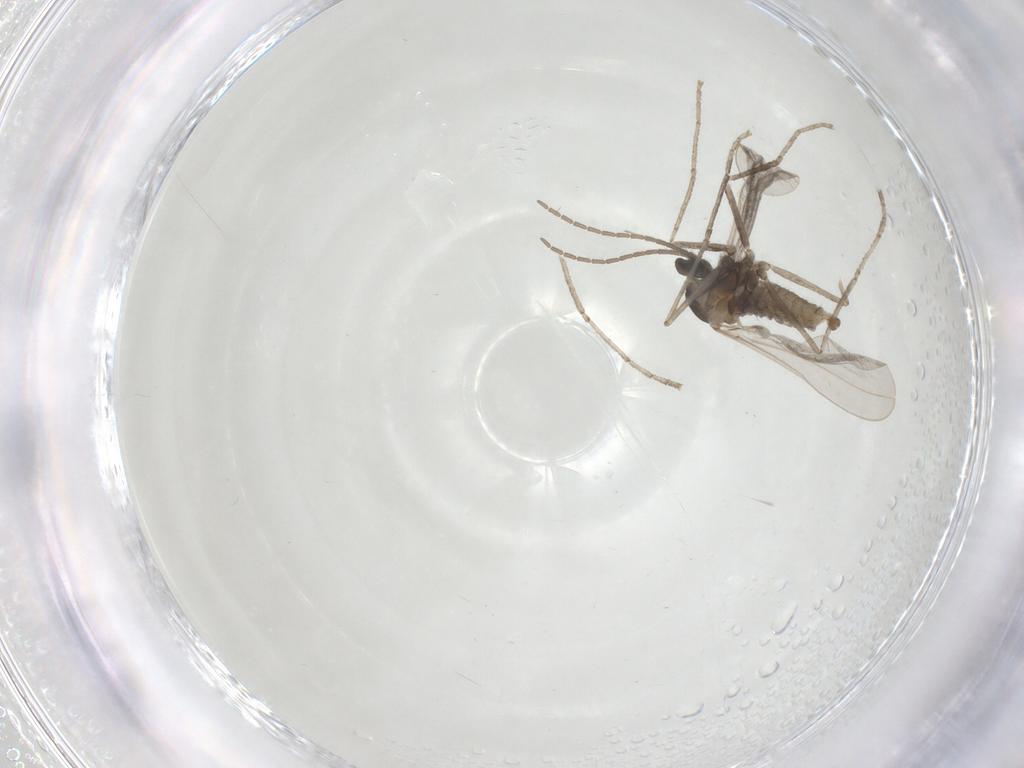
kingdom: Animalia
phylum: Arthropoda
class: Insecta
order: Diptera
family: Cecidomyiidae
